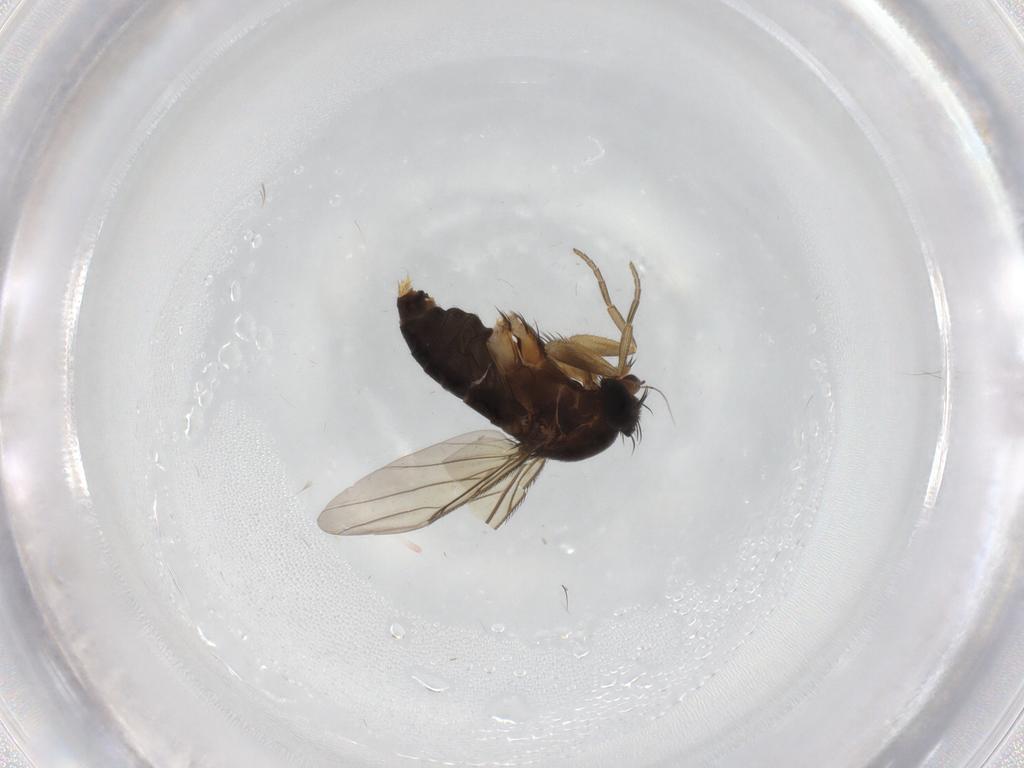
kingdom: Animalia
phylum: Arthropoda
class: Insecta
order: Diptera
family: Phoridae
